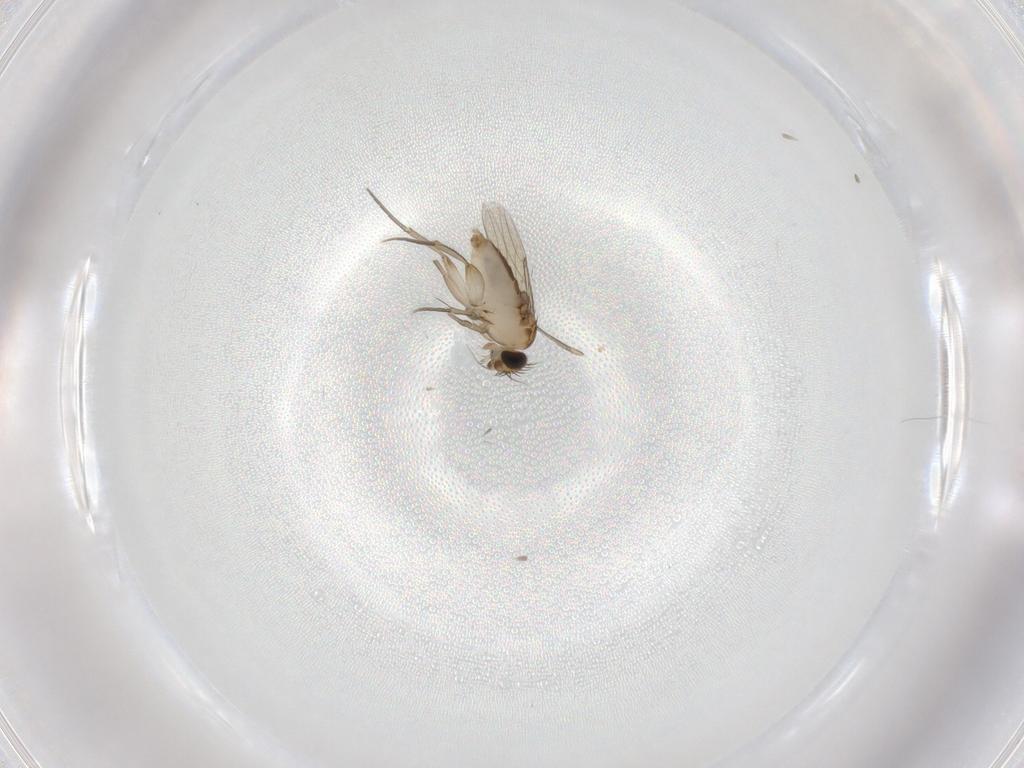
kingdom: Animalia
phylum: Arthropoda
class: Insecta
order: Diptera
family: Phoridae
